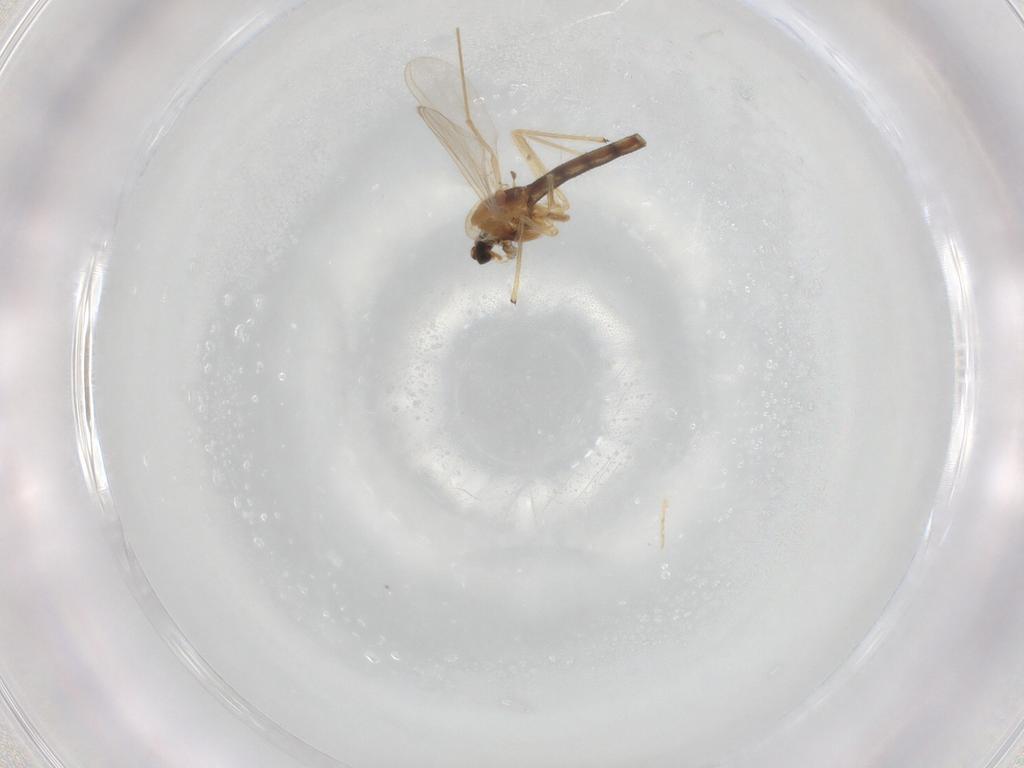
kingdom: Animalia
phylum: Arthropoda
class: Insecta
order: Diptera
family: Chironomidae
